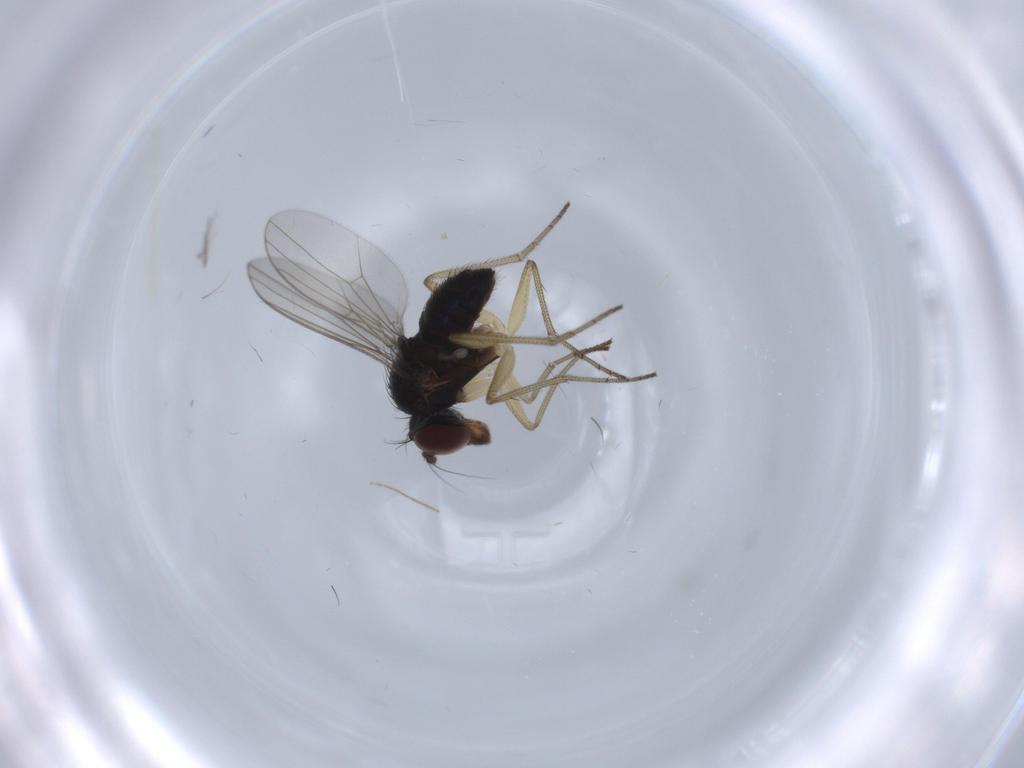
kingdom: Animalia
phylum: Arthropoda
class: Insecta
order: Diptera
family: Dolichopodidae
